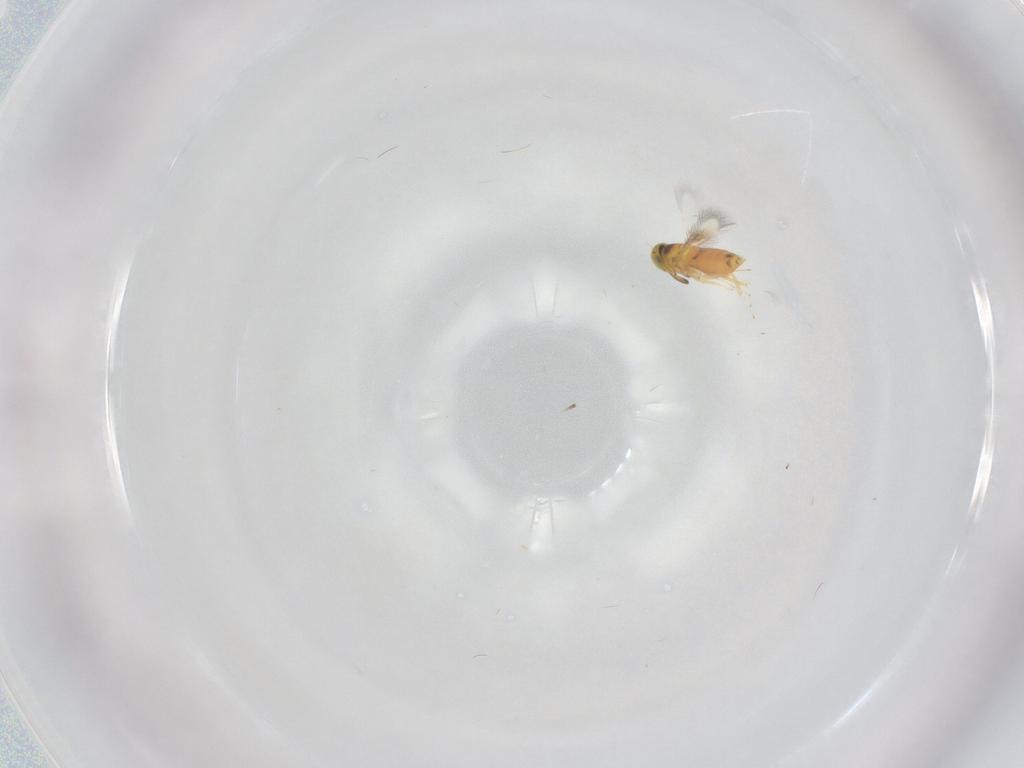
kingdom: Animalia
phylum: Arthropoda
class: Insecta
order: Hymenoptera
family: Signiphoridae
